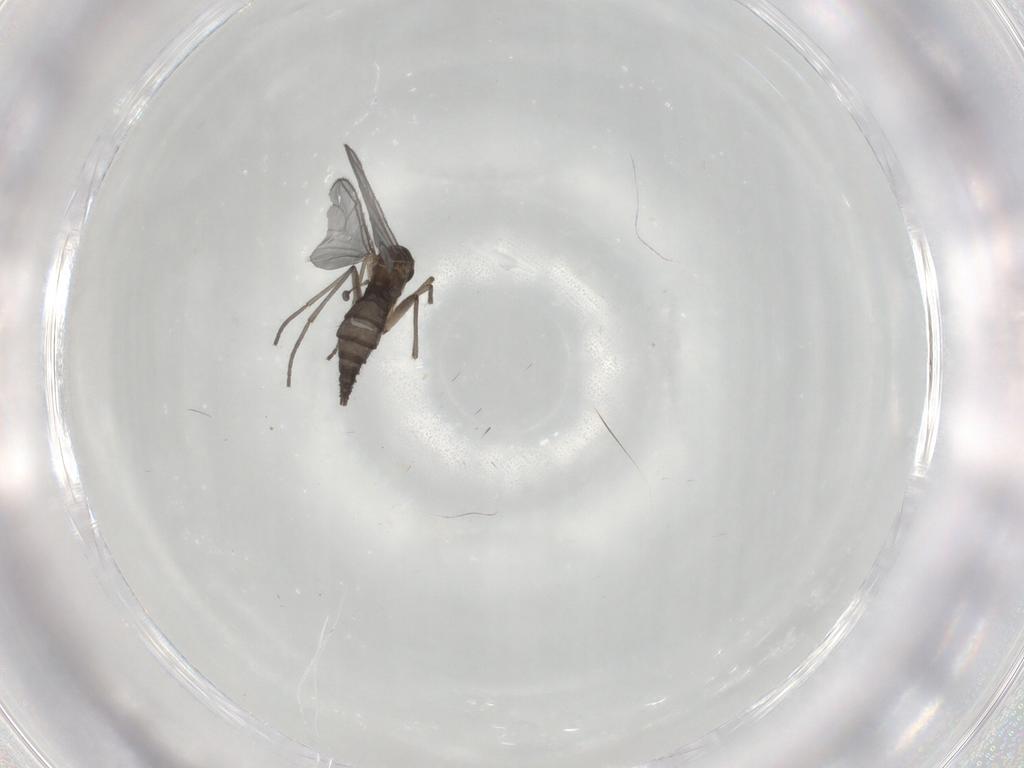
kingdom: Animalia
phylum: Arthropoda
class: Insecta
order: Diptera
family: Sciaridae
